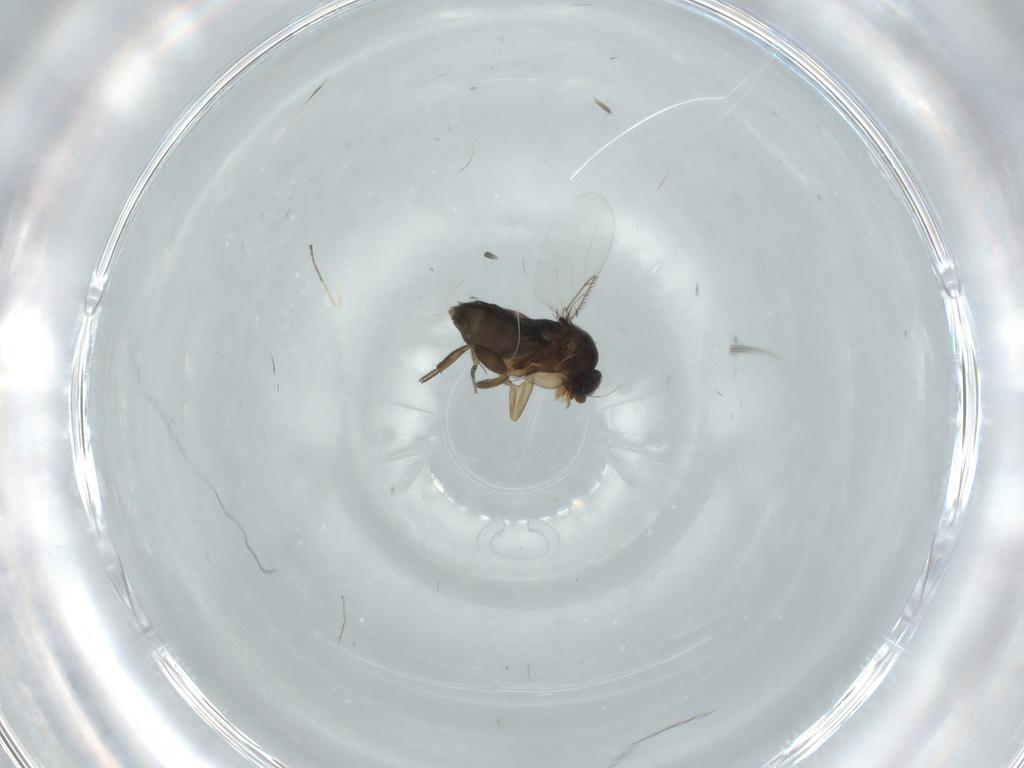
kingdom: Animalia
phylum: Arthropoda
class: Insecta
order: Diptera
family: Phoridae
